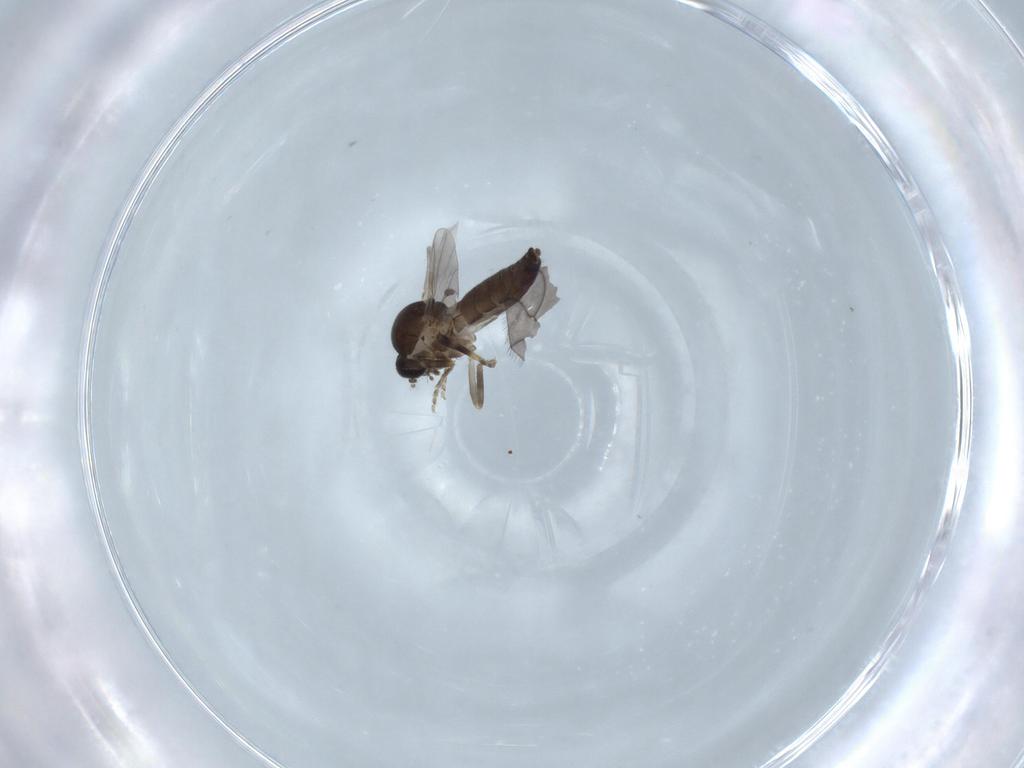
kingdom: Animalia
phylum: Arthropoda
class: Insecta
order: Diptera
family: Ceratopogonidae
